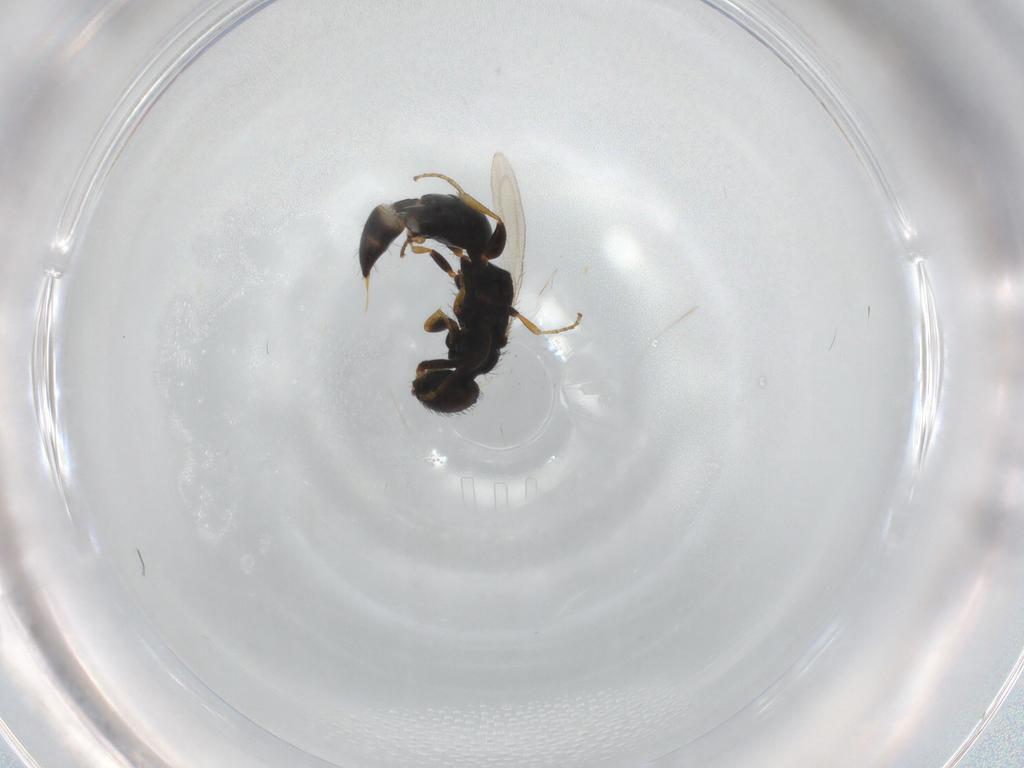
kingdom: Animalia
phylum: Arthropoda
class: Insecta
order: Hymenoptera
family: Bethylidae
